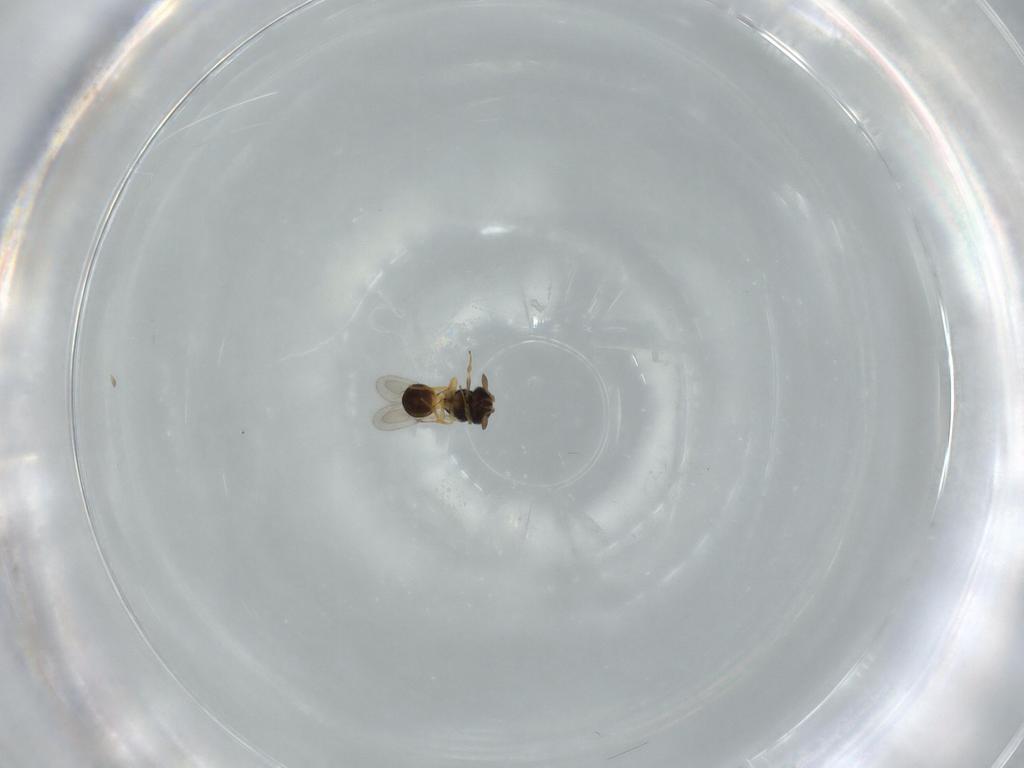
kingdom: Animalia
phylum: Arthropoda
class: Insecta
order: Hymenoptera
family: Scelionidae
